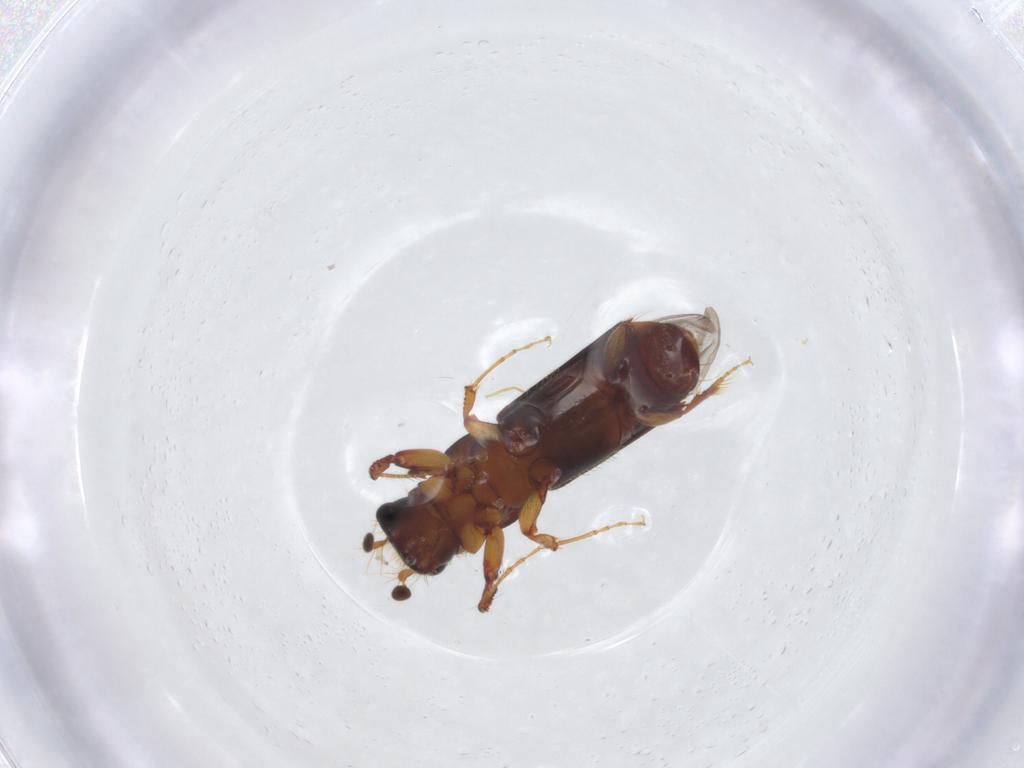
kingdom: Animalia
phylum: Arthropoda
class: Insecta
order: Coleoptera
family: Curculionidae
